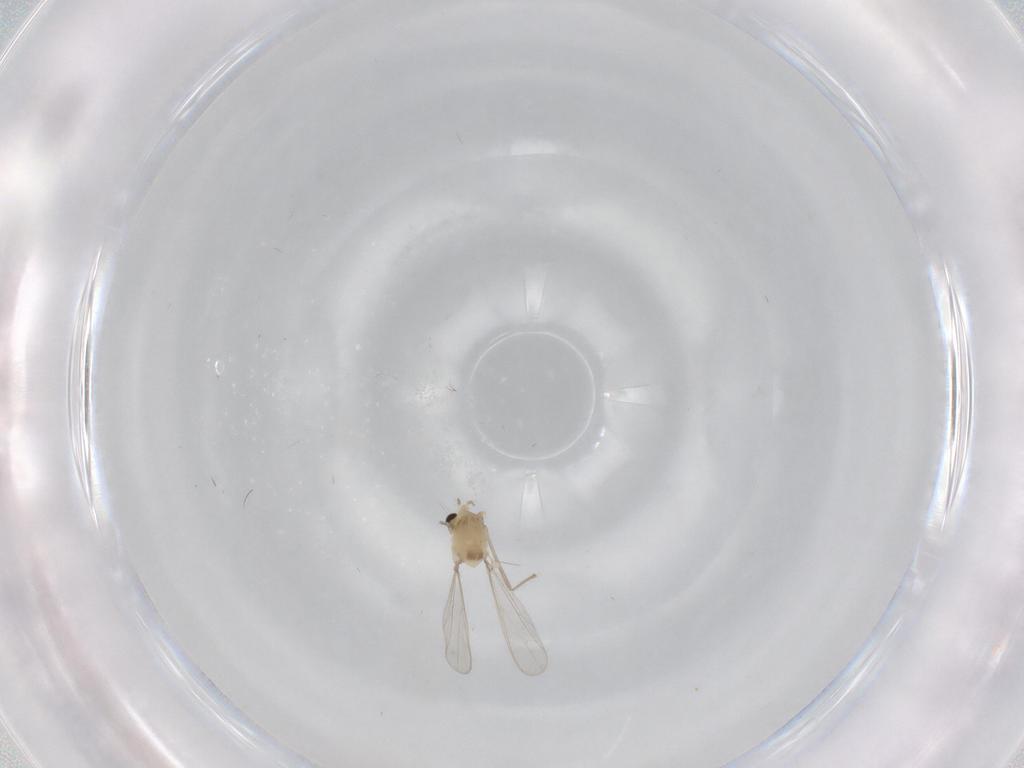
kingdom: Animalia
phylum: Arthropoda
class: Insecta
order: Diptera
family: Chironomidae
